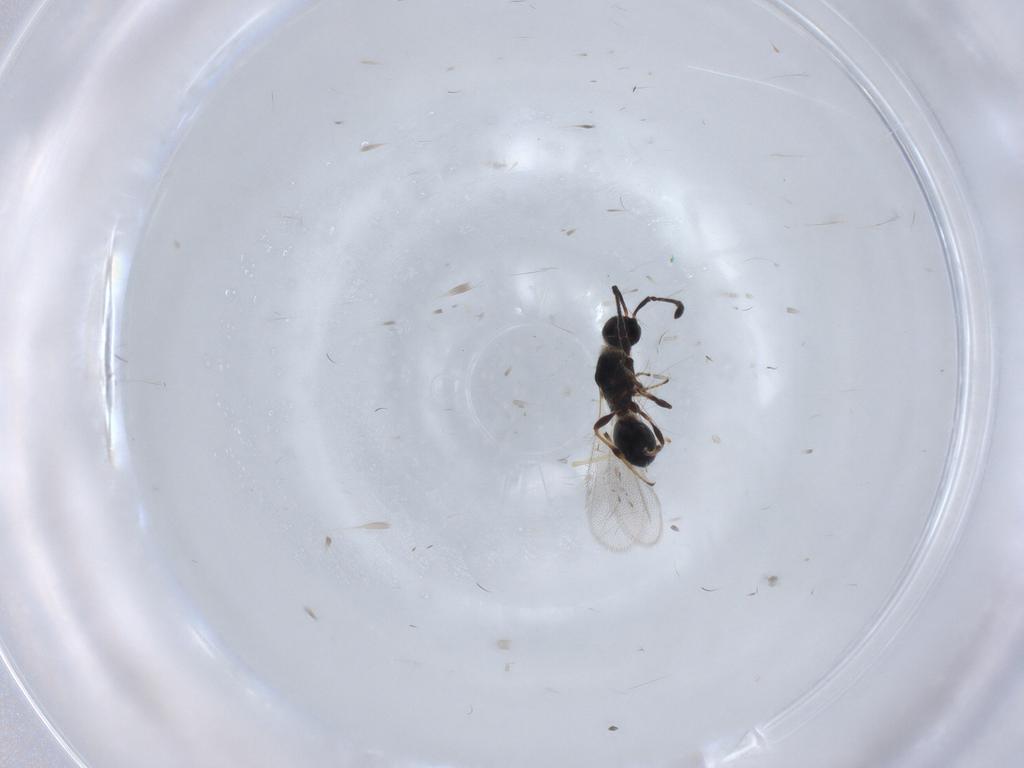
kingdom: Animalia
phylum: Arthropoda
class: Insecta
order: Hymenoptera
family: Diapriidae
